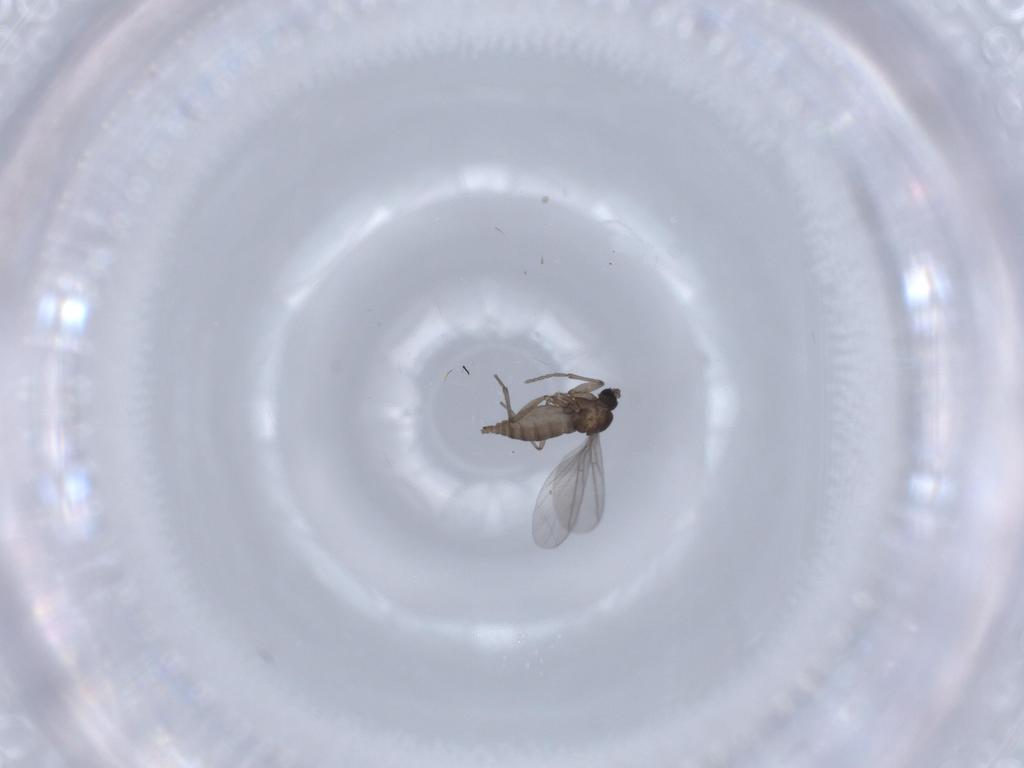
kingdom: Animalia
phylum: Arthropoda
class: Insecta
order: Diptera
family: Sciaridae
